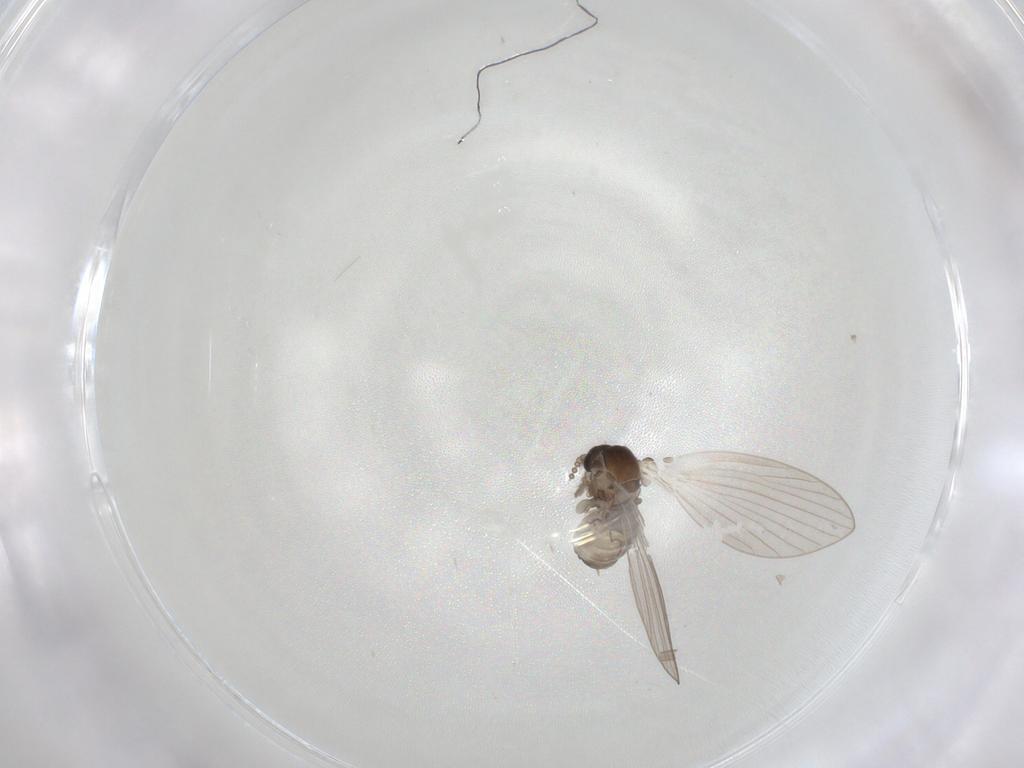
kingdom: Animalia
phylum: Arthropoda
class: Insecta
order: Diptera
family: Psychodidae
